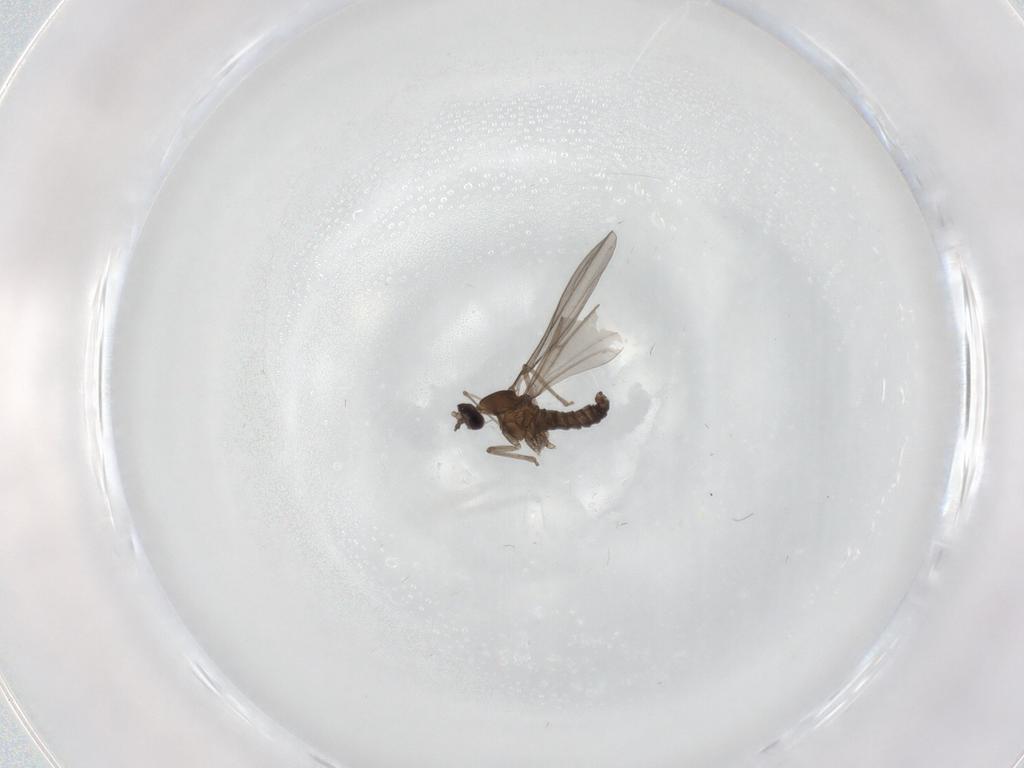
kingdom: Animalia
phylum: Arthropoda
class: Insecta
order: Diptera
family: Cecidomyiidae
